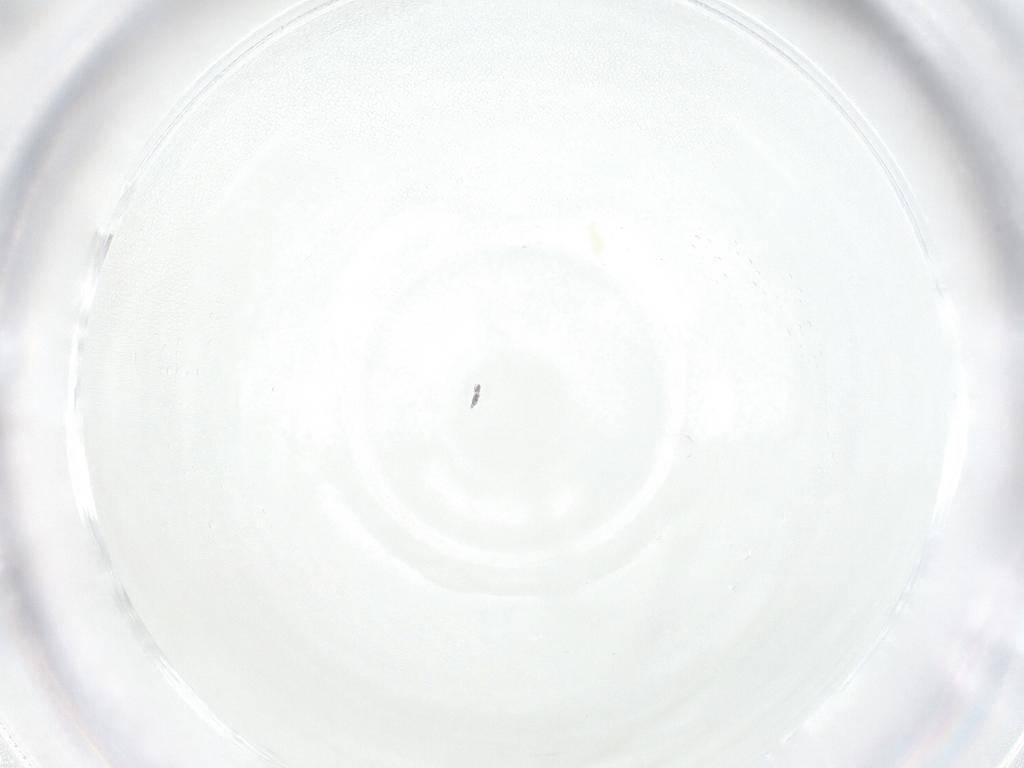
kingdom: Animalia
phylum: Arthropoda
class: Arachnida
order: Sarcoptiformes
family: Nanorchestidae
